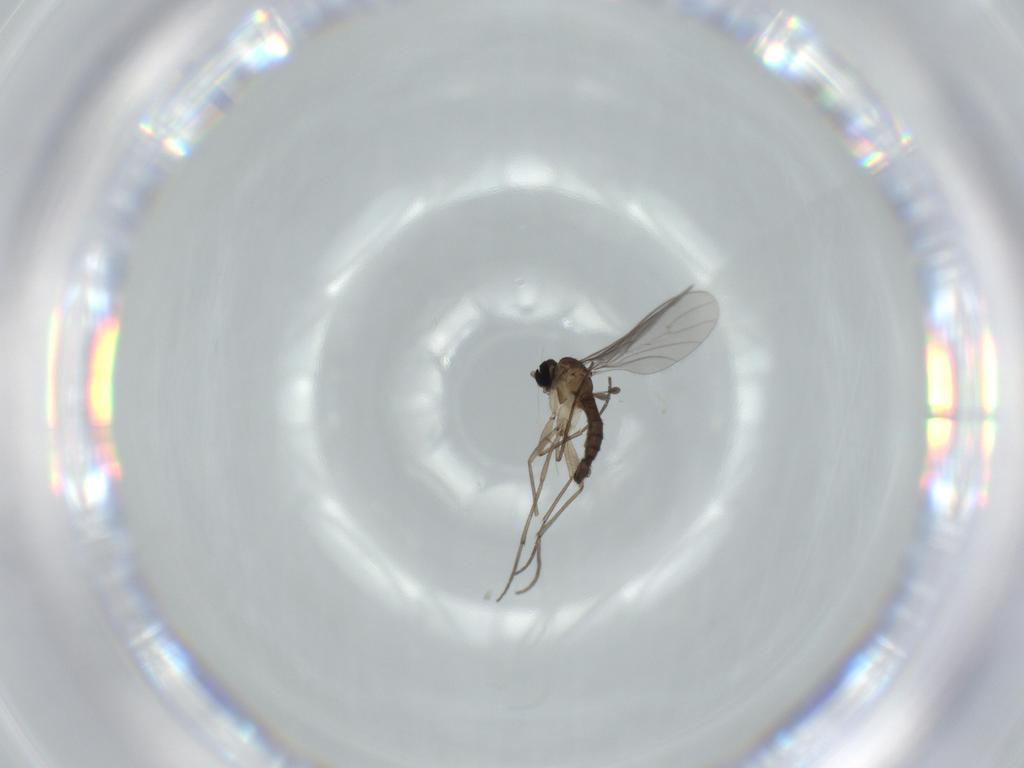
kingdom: Animalia
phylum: Arthropoda
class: Insecta
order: Diptera
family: Sciaridae
